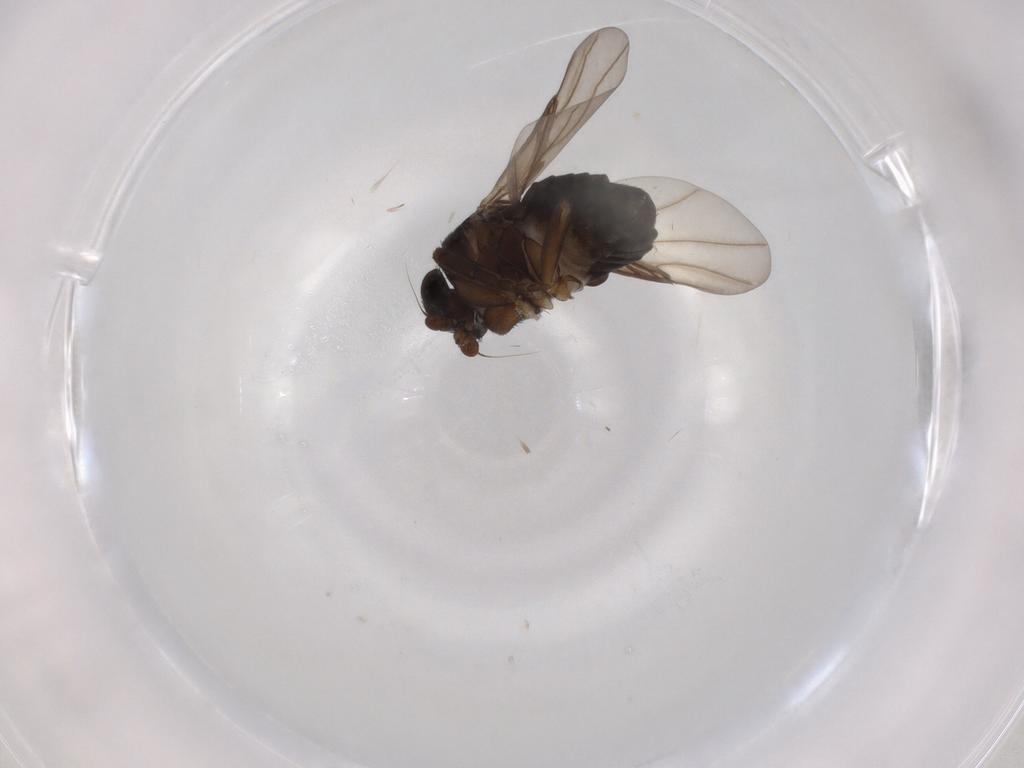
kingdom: Animalia
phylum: Arthropoda
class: Insecta
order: Diptera
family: Phoridae
